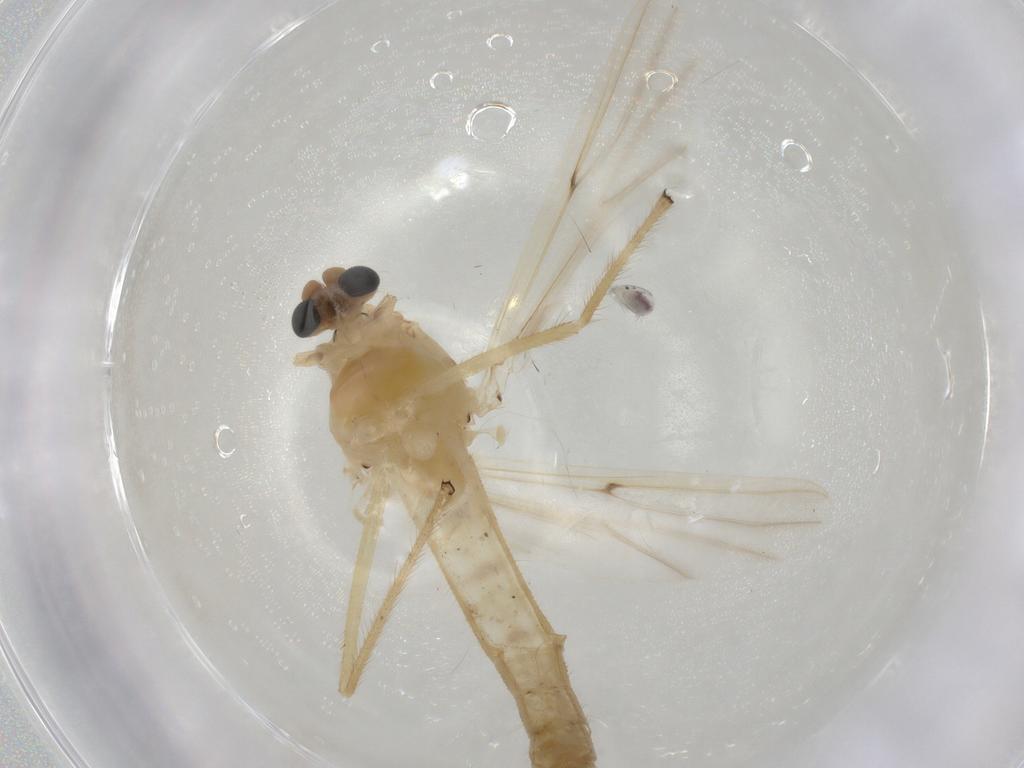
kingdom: Animalia
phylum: Arthropoda
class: Insecta
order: Diptera
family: Chironomidae
